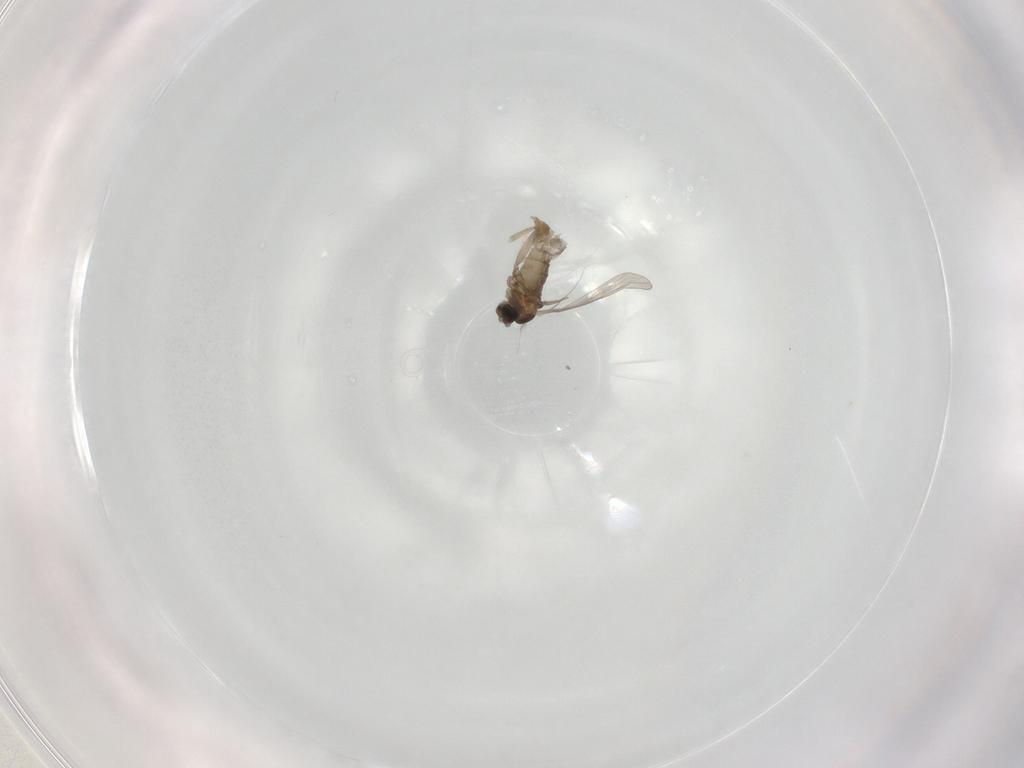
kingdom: Animalia
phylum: Arthropoda
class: Insecta
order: Diptera
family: Cecidomyiidae
